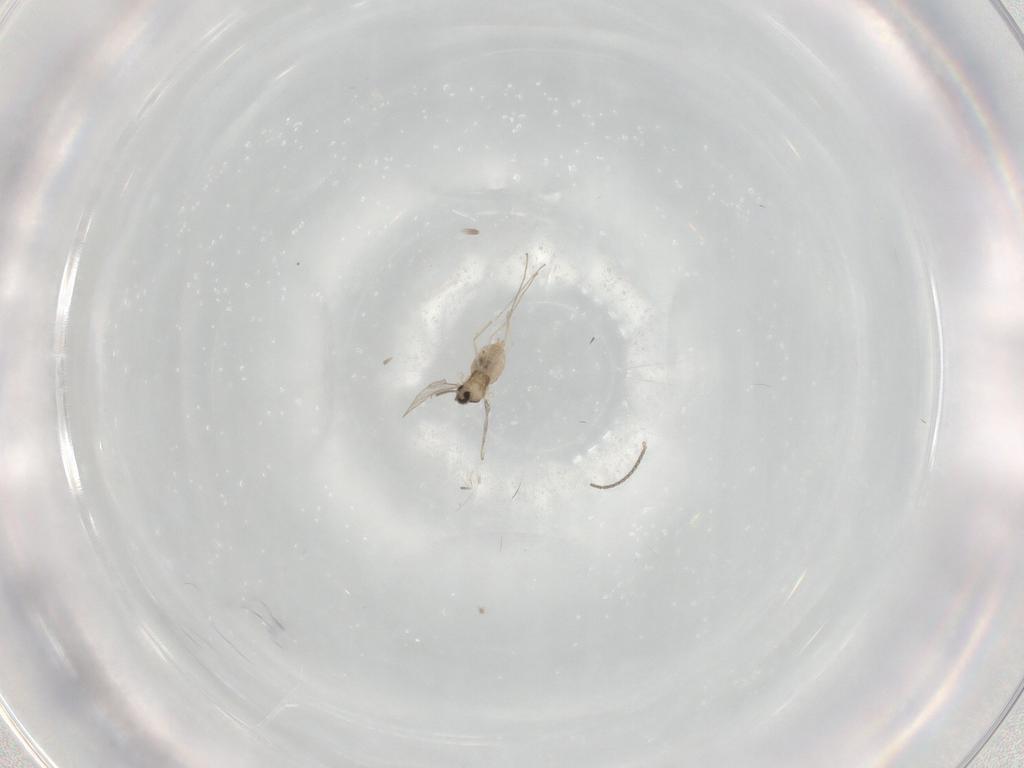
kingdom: Animalia
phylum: Arthropoda
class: Insecta
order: Diptera
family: Cecidomyiidae
